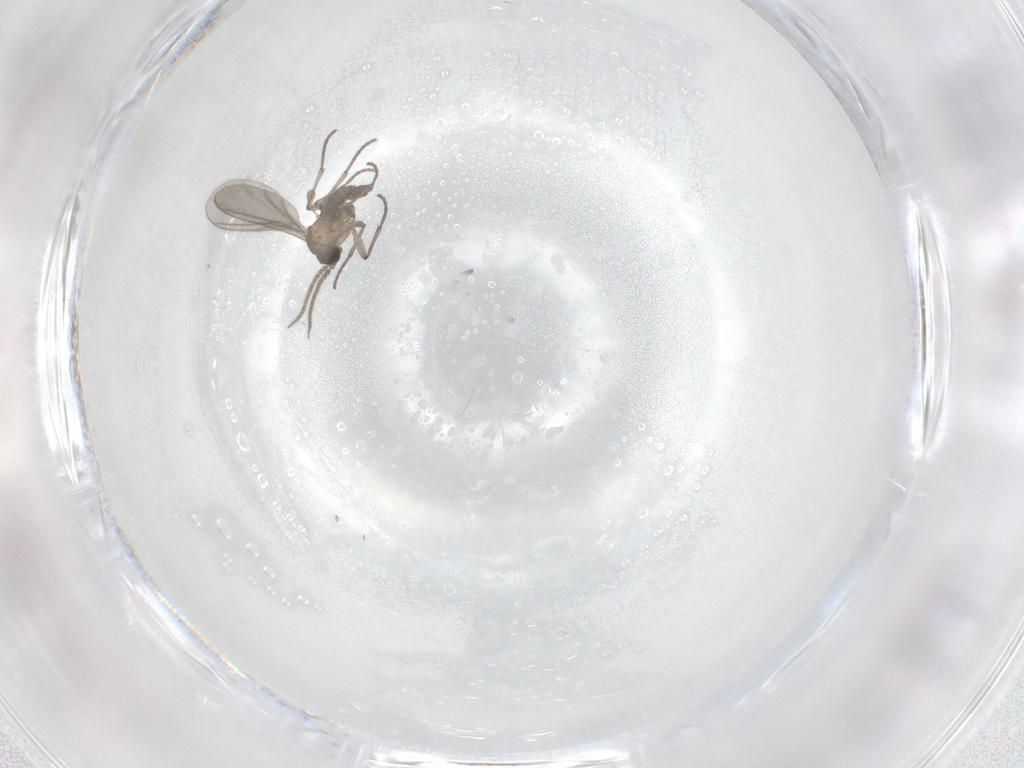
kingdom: Animalia
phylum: Arthropoda
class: Insecta
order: Diptera
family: Sciaridae
